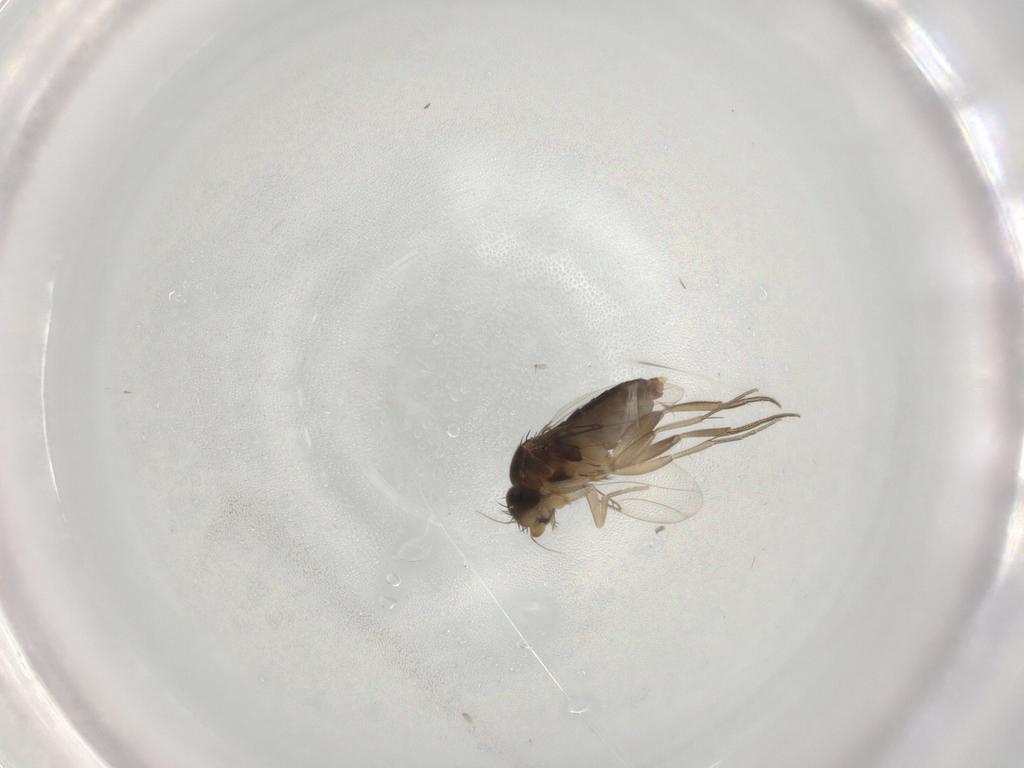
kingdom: Animalia
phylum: Arthropoda
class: Insecta
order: Diptera
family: Phoridae
